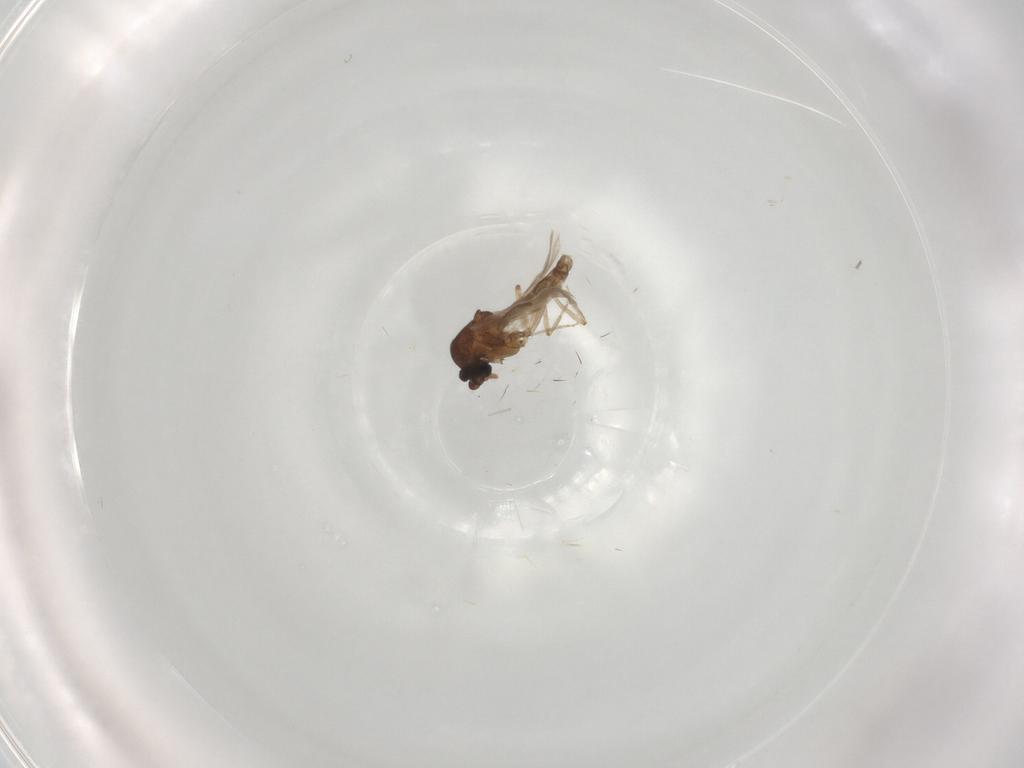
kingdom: Animalia
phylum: Arthropoda
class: Insecta
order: Diptera
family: Ceratopogonidae
